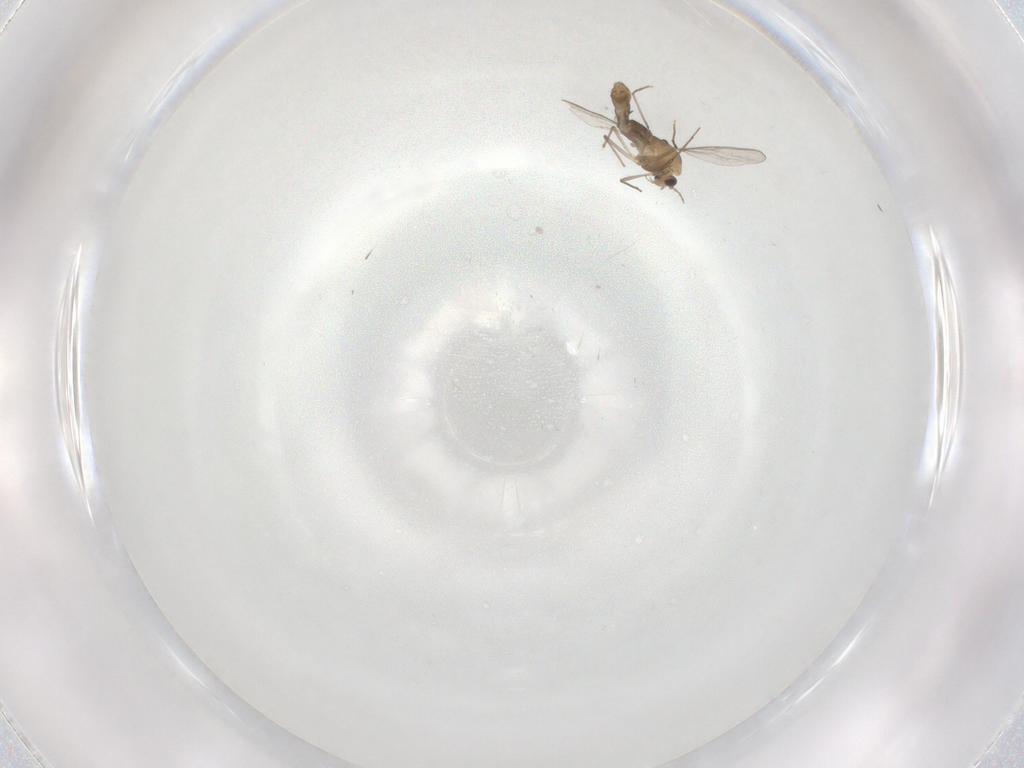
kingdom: Animalia
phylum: Arthropoda
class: Insecta
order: Diptera
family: Chironomidae
